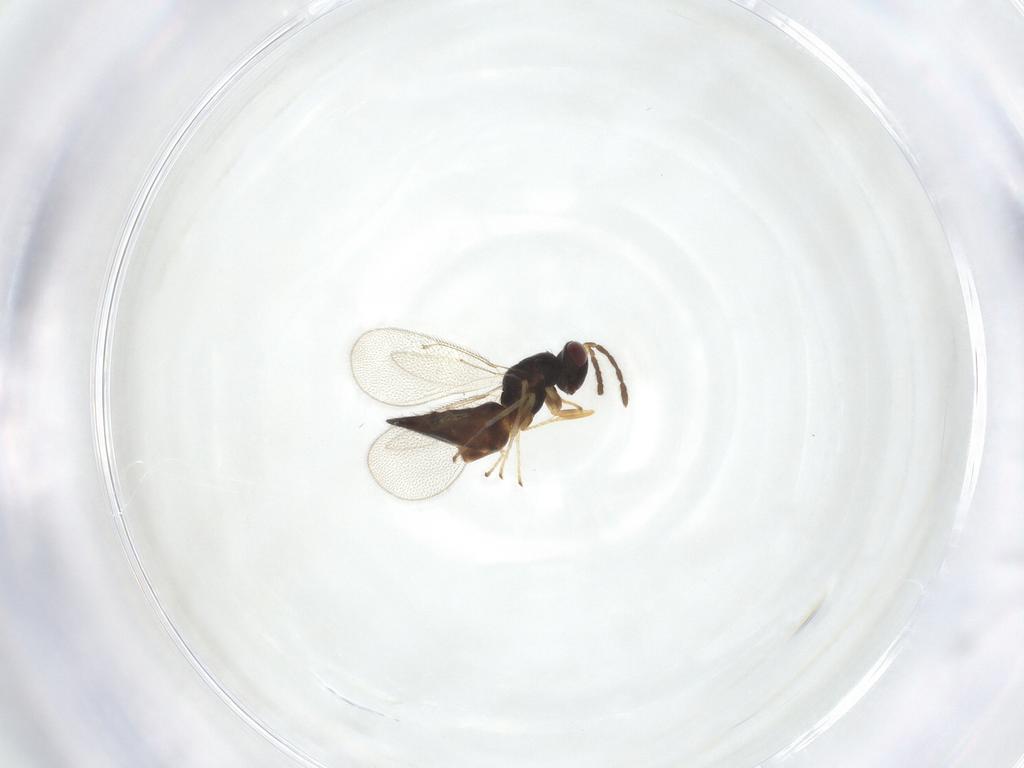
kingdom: Animalia
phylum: Arthropoda
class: Insecta
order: Hymenoptera
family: Eulophidae
